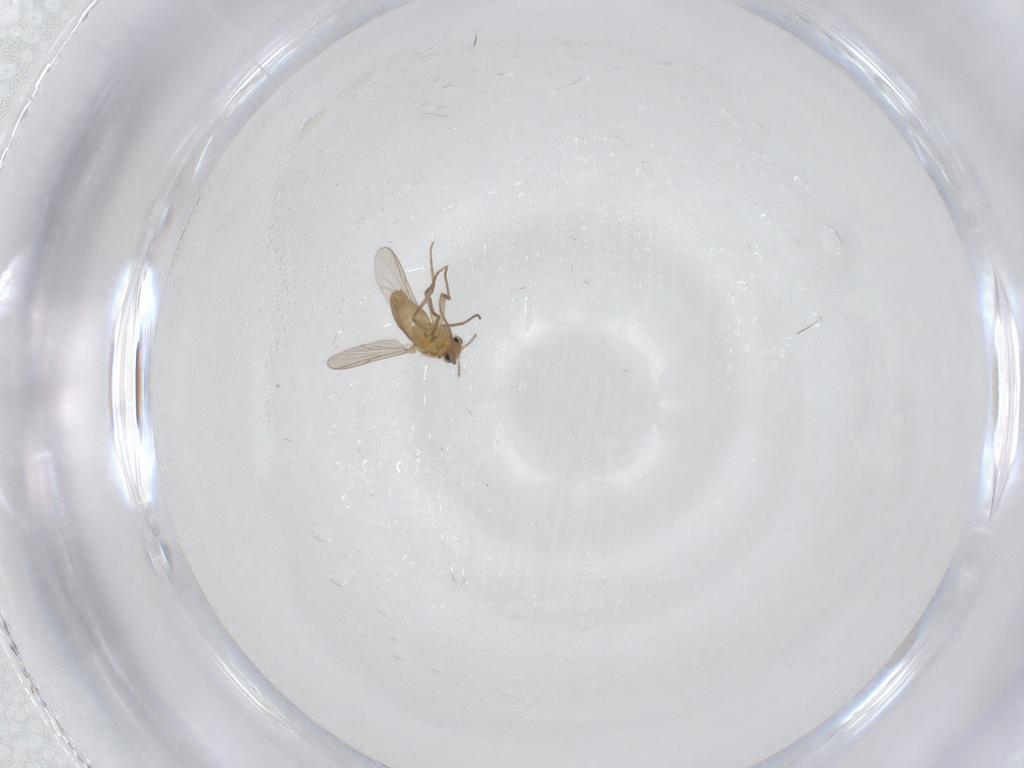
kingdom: Animalia
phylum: Arthropoda
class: Insecta
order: Diptera
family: Chironomidae
